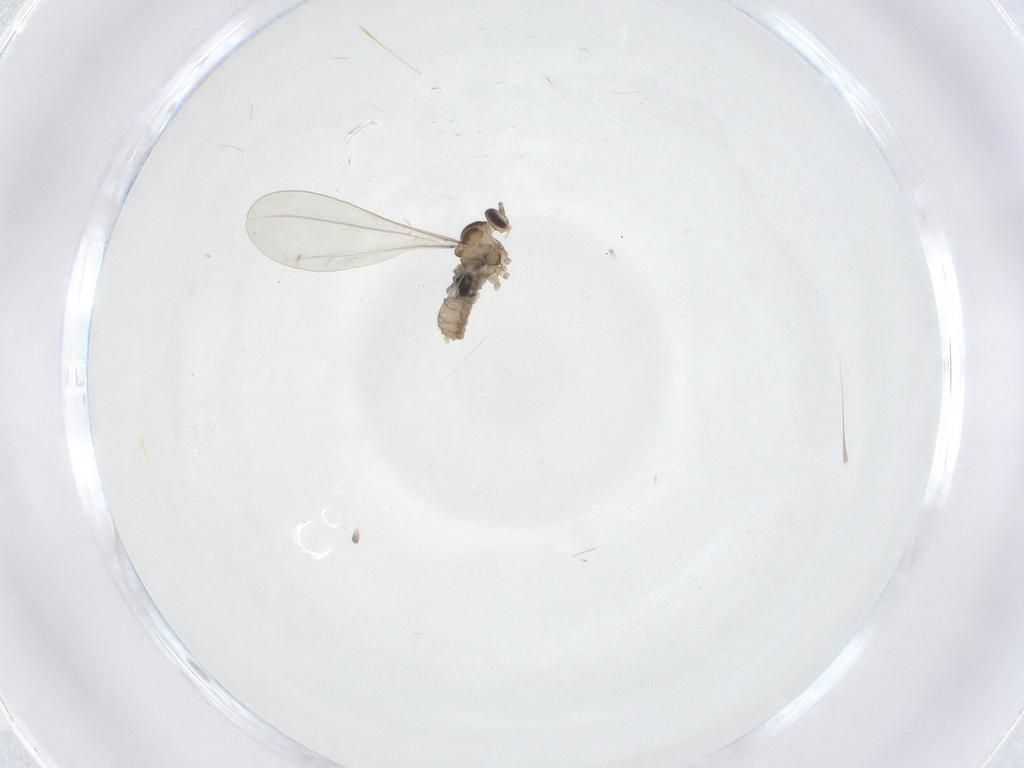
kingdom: Animalia
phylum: Arthropoda
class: Insecta
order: Diptera
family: Cecidomyiidae
